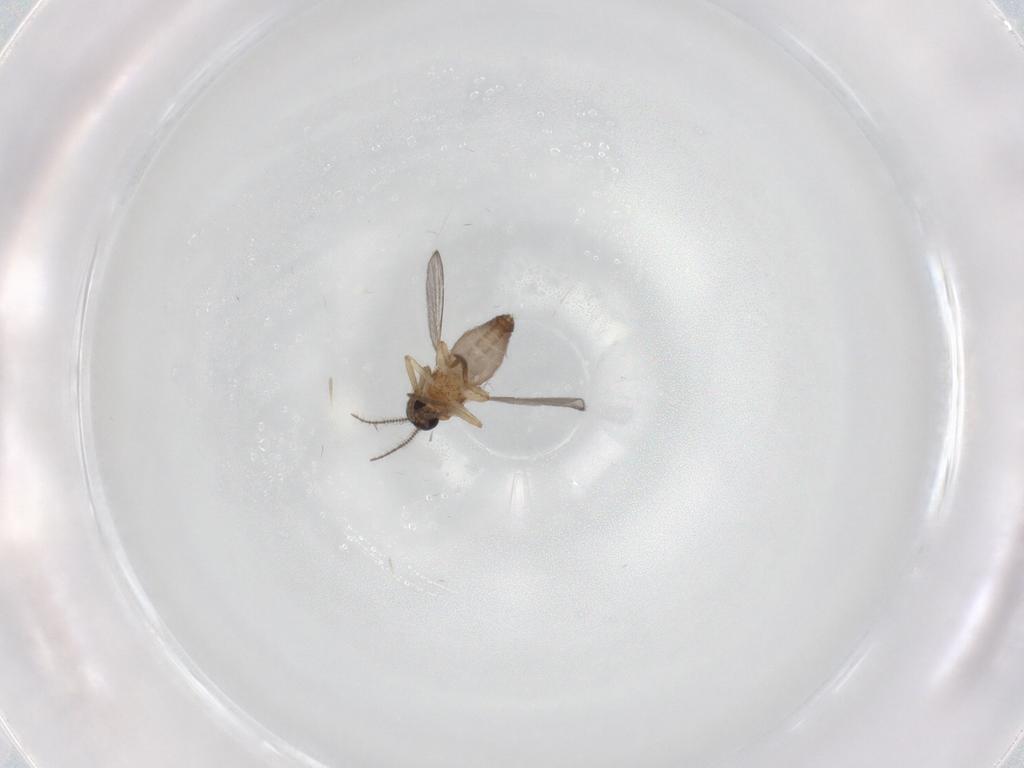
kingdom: Animalia
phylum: Arthropoda
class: Insecta
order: Diptera
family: Ceratopogonidae
